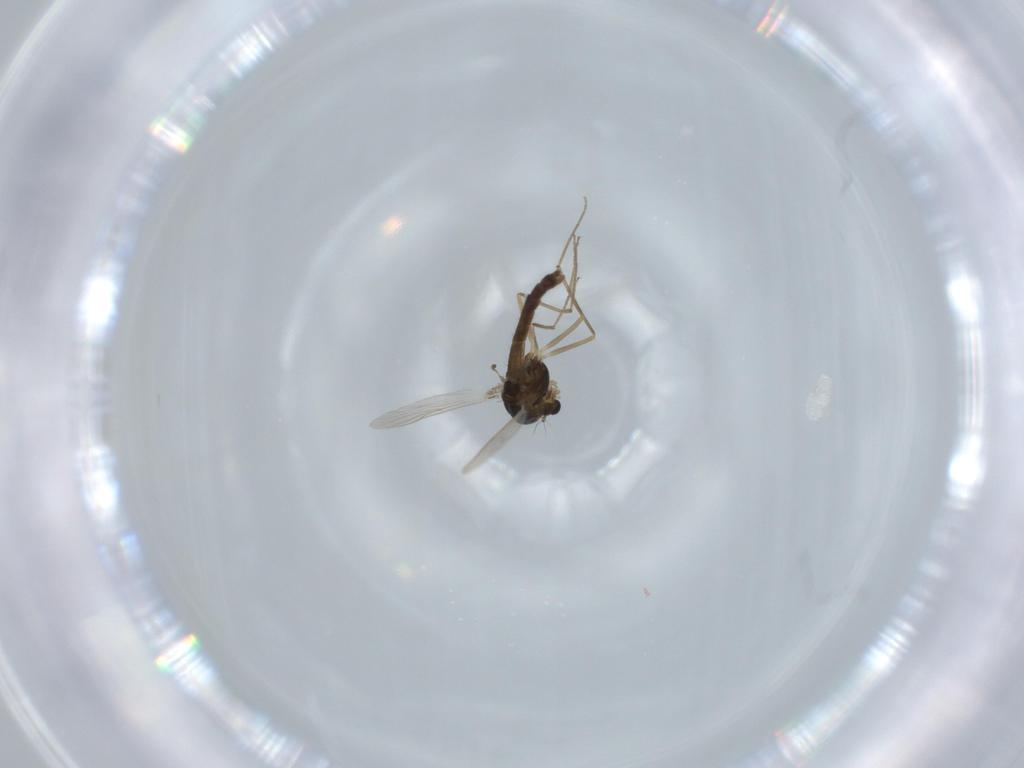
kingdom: Animalia
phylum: Arthropoda
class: Insecta
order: Diptera
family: Chironomidae
